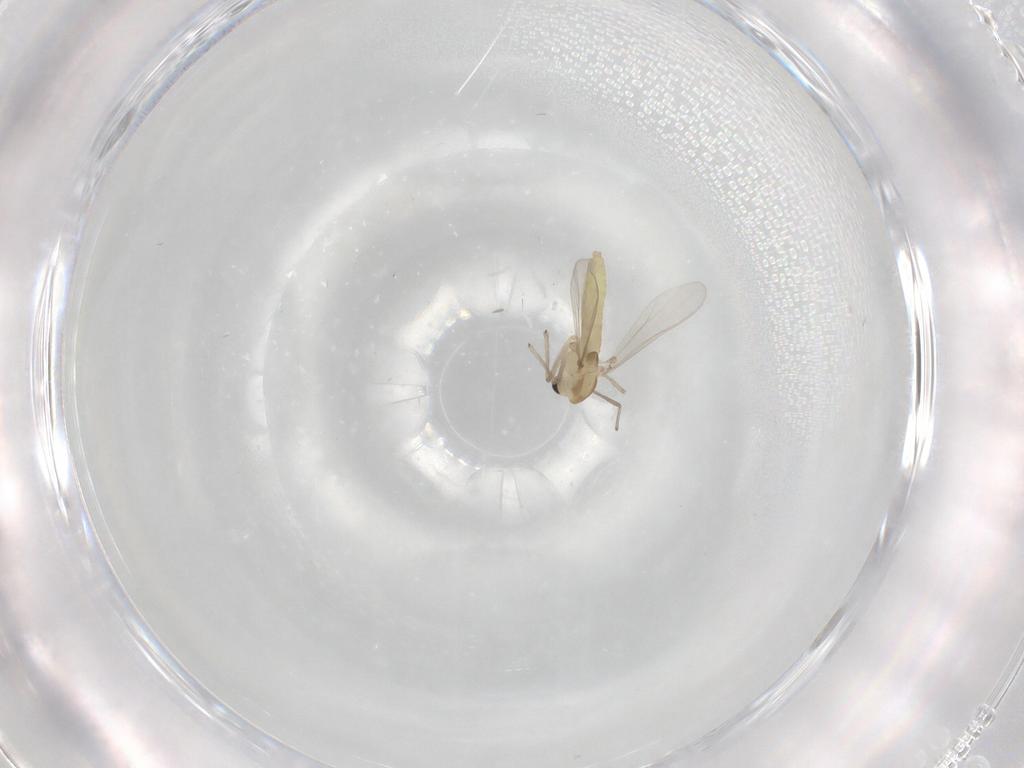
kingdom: Animalia
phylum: Arthropoda
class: Insecta
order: Diptera
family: Chironomidae
